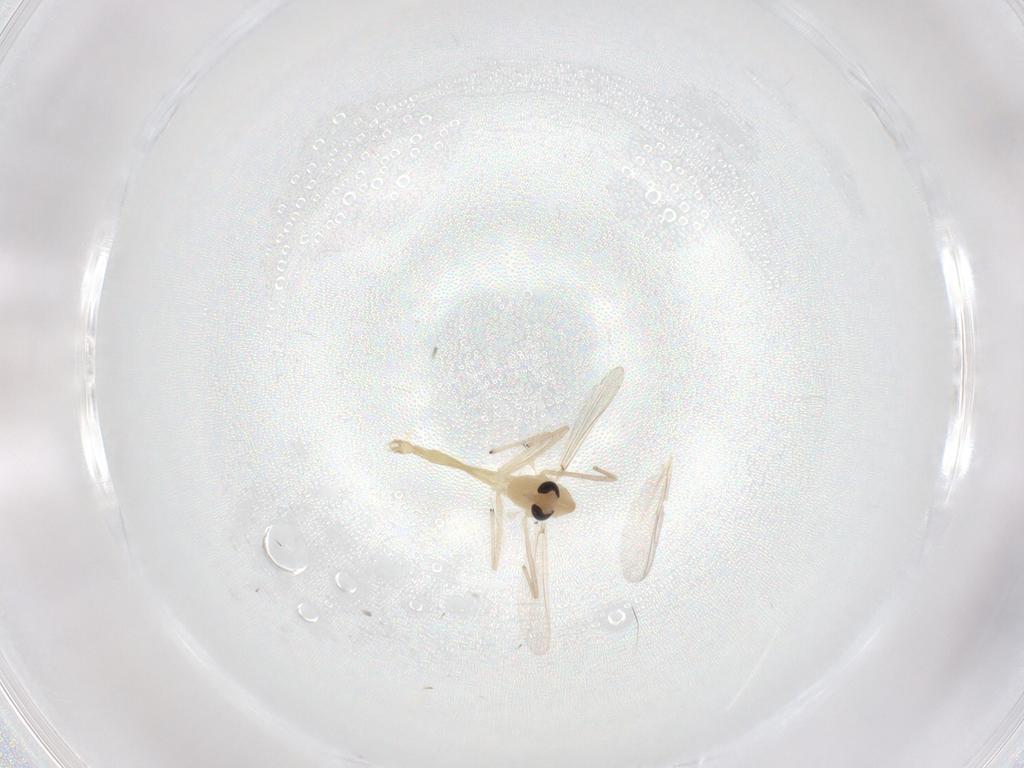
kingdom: Animalia
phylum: Arthropoda
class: Insecta
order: Diptera
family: Chironomidae
